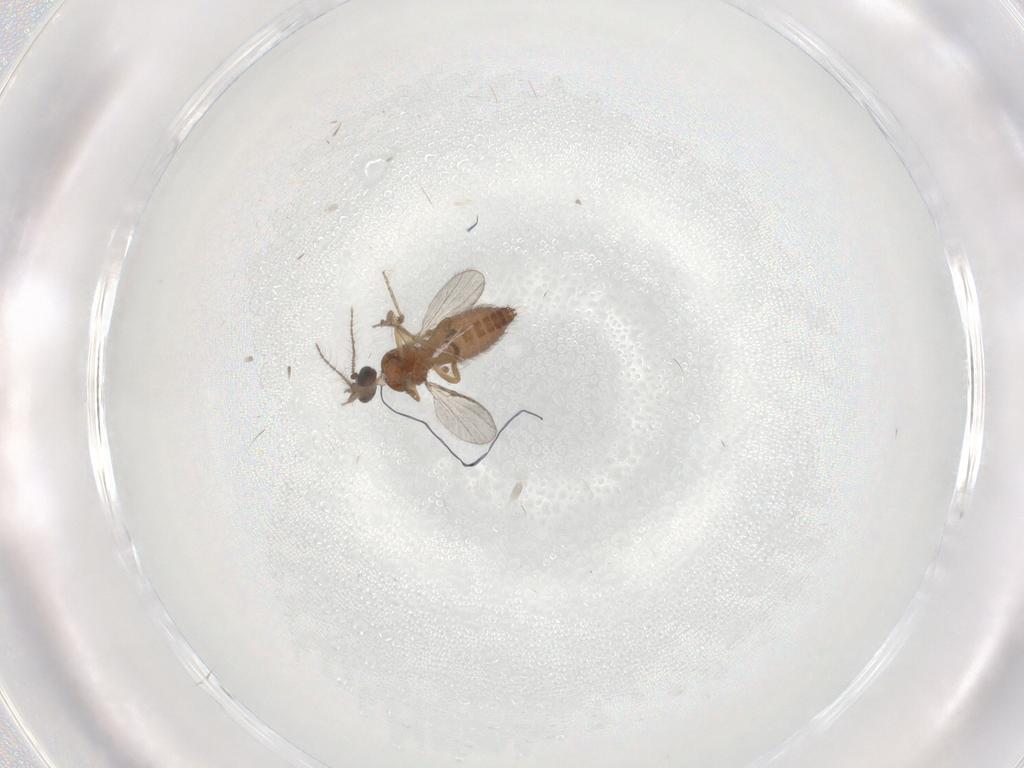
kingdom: Animalia
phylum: Arthropoda
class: Insecta
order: Diptera
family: Ceratopogonidae
